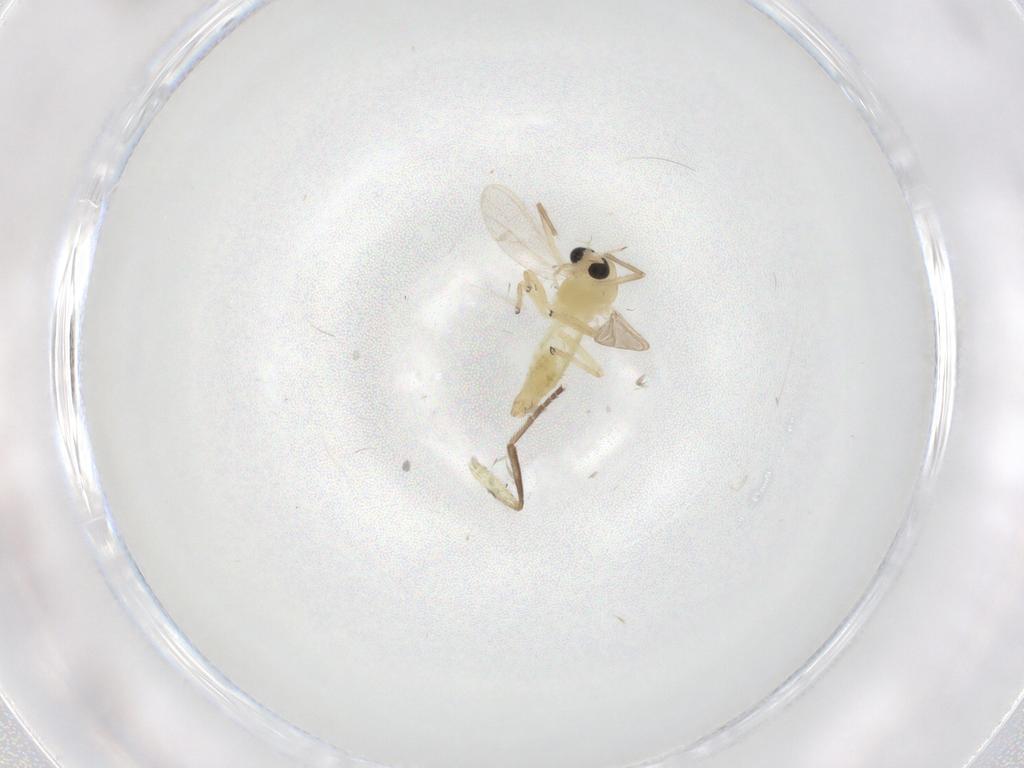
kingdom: Animalia
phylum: Arthropoda
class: Insecta
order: Diptera
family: Chironomidae
